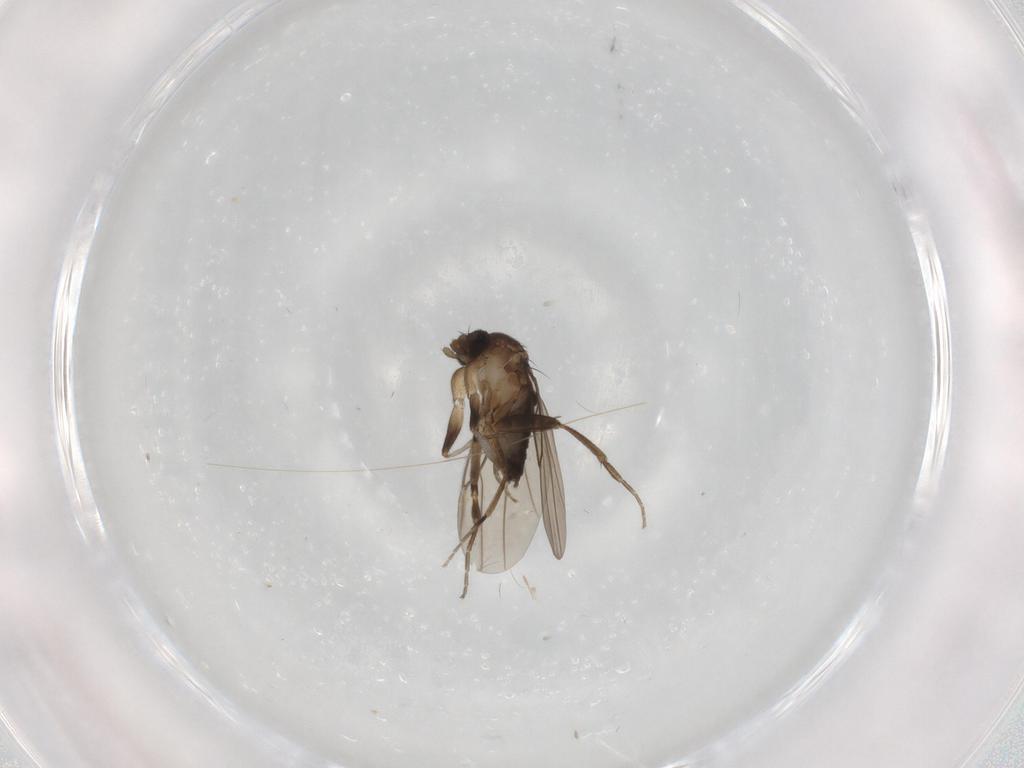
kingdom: Animalia
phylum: Arthropoda
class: Insecta
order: Diptera
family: Phoridae
